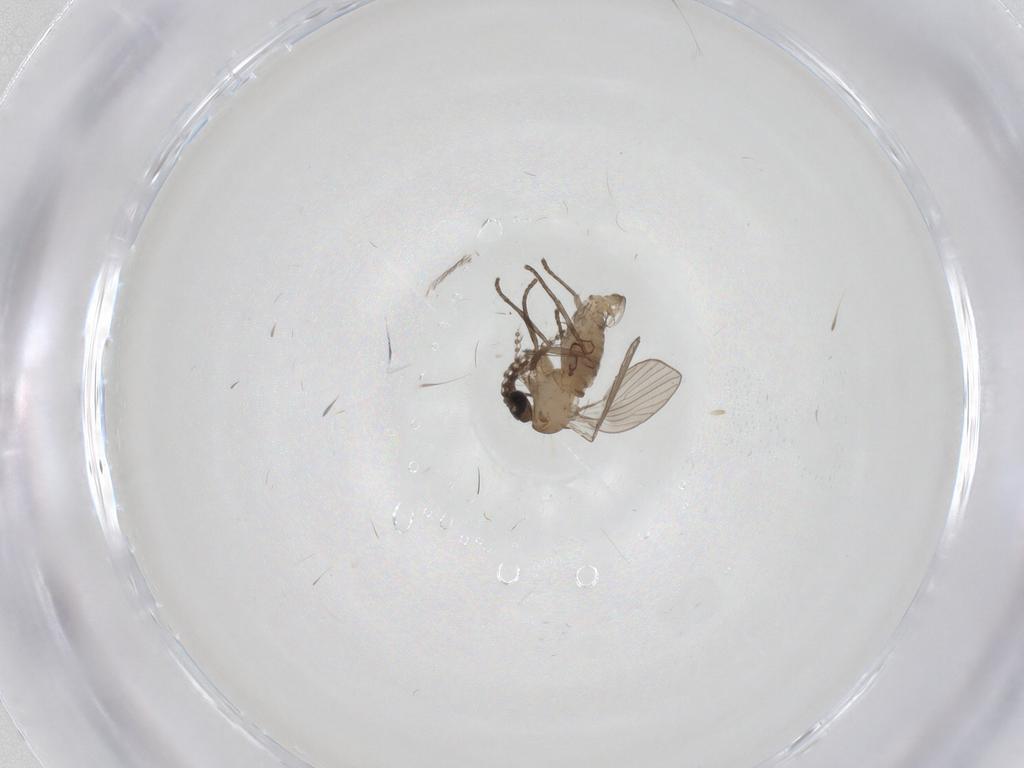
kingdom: Animalia
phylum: Arthropoda
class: Insecta
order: Diptera
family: Psychodidae
